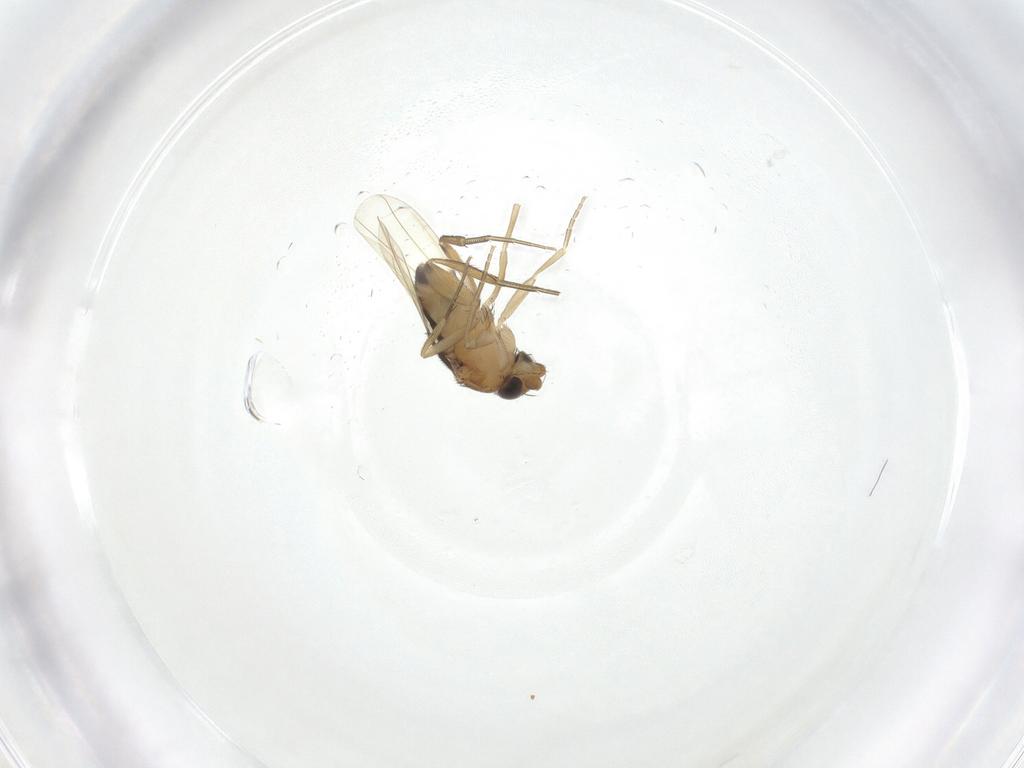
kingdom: Animalia
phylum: Arthropoda
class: Insecta
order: Diptera
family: Phoridae
